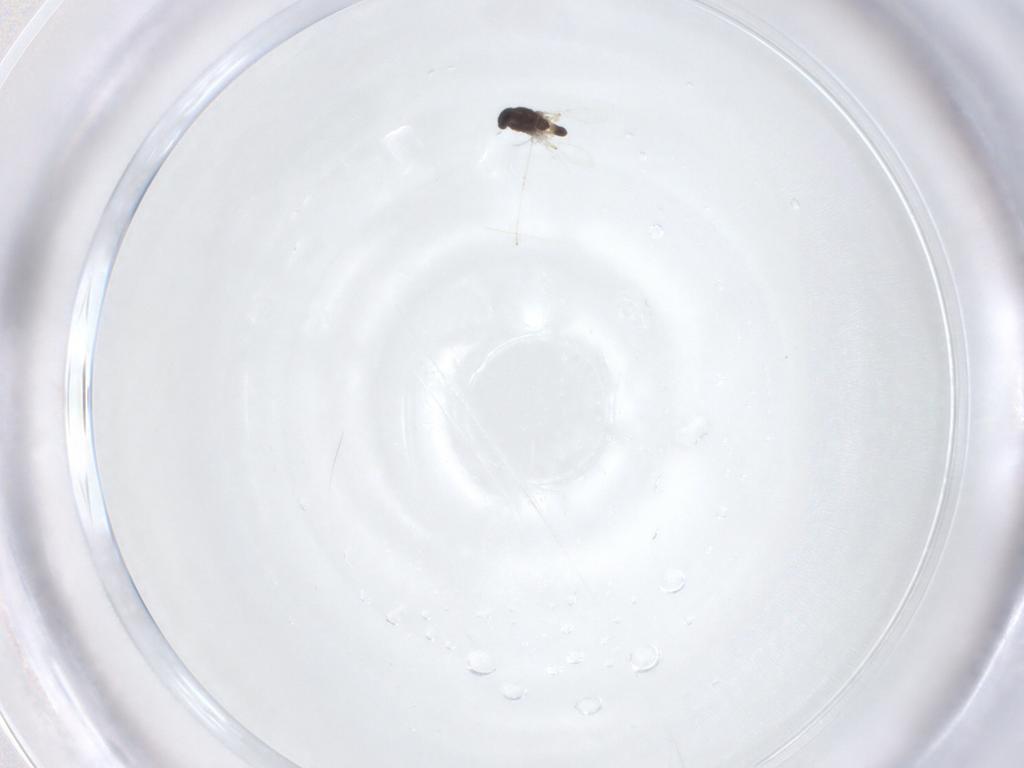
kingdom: Animalia
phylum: Arthropoda
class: Insecta
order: Diptera
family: Chironomidae
